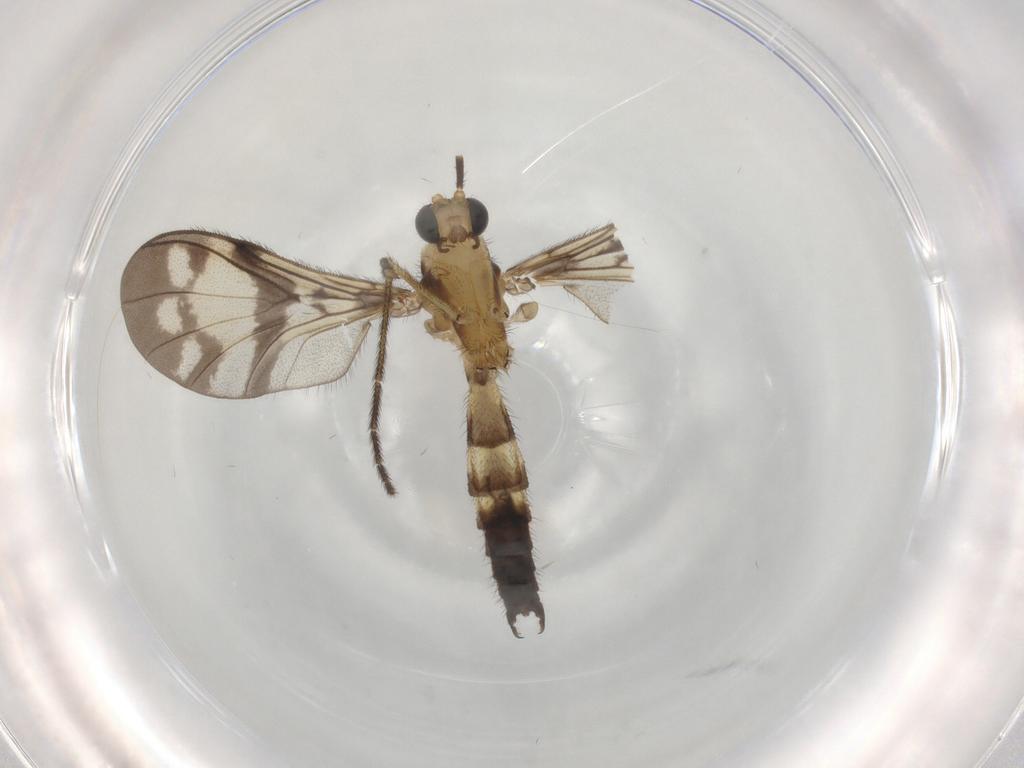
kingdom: Animalia
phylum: Arthropoda
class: Insecta
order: Diptera
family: Keroplatidae
